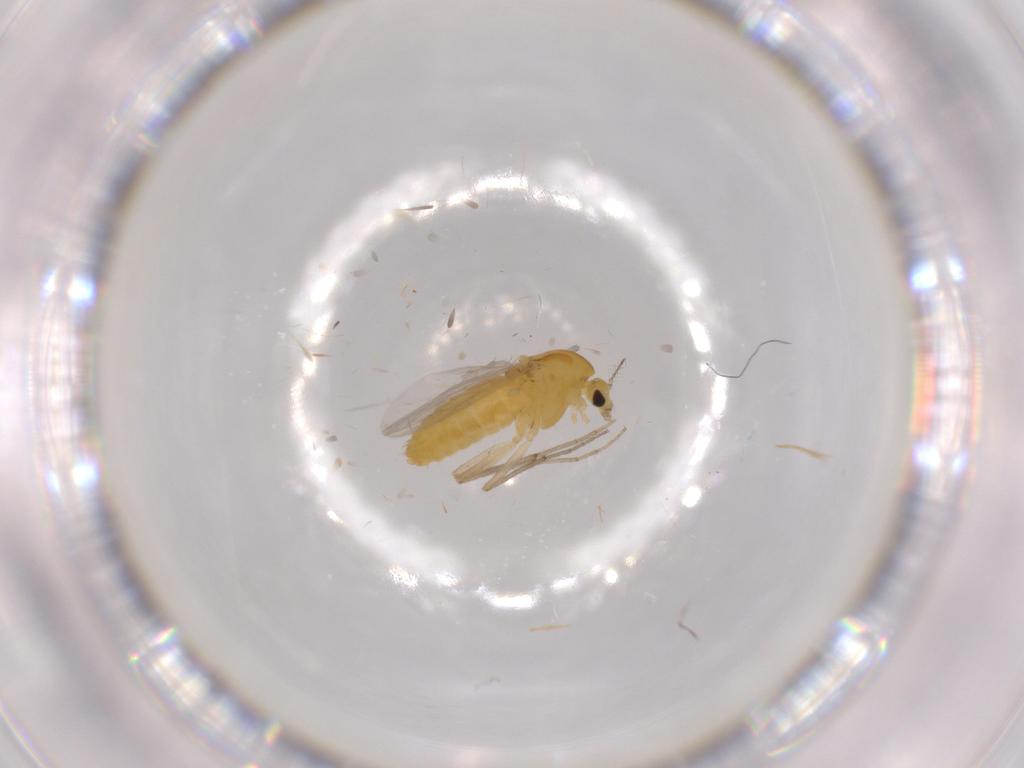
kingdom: Animalia
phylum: Arthropoda
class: Insecta
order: Diptera
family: Chironomidae
